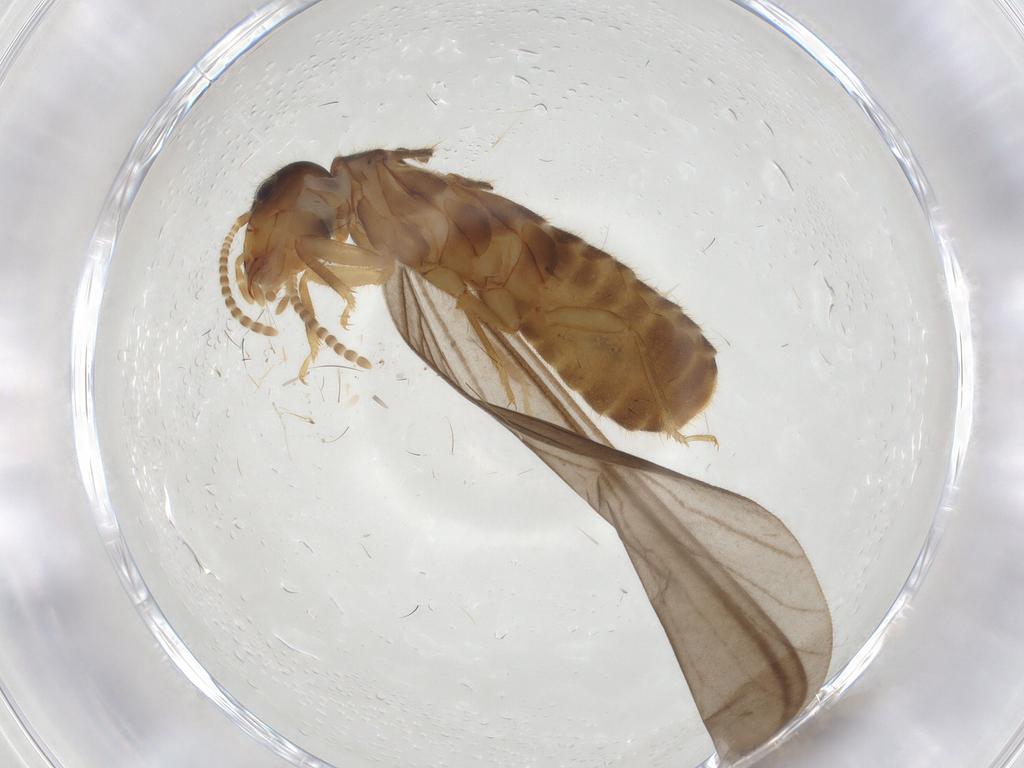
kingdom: Animalia
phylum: Arthropoda
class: Insecta
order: Blattodea
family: Termitidae
